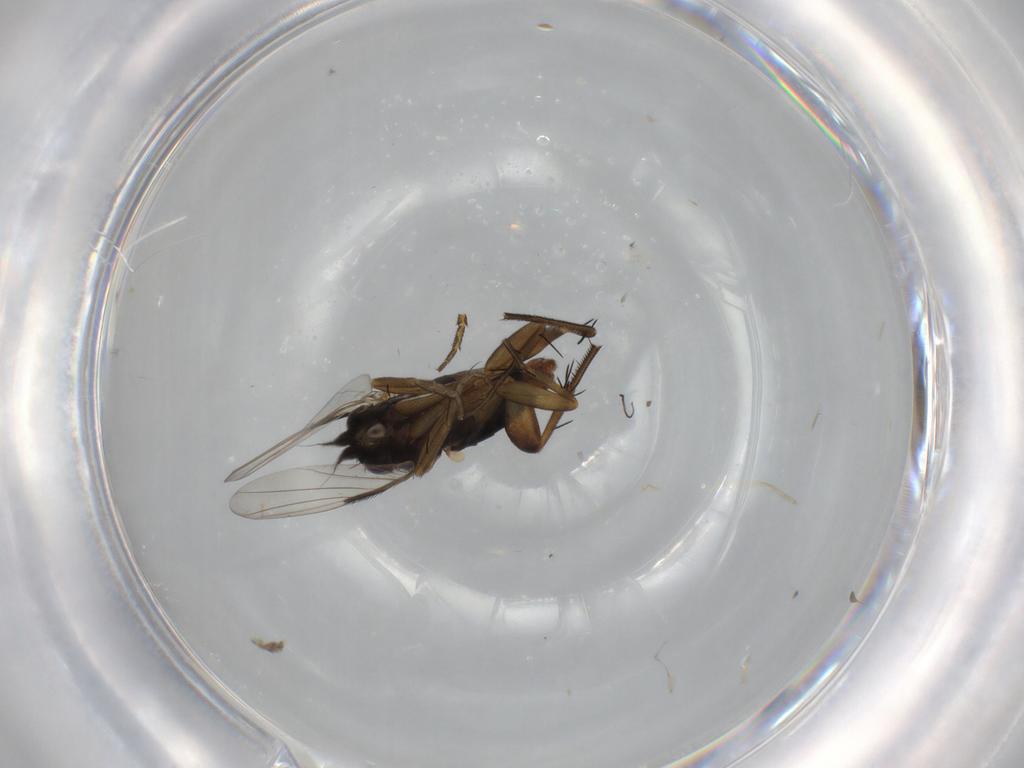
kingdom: Animalia
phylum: Arthropoda
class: Insecta
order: Diptera
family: Phoridae
